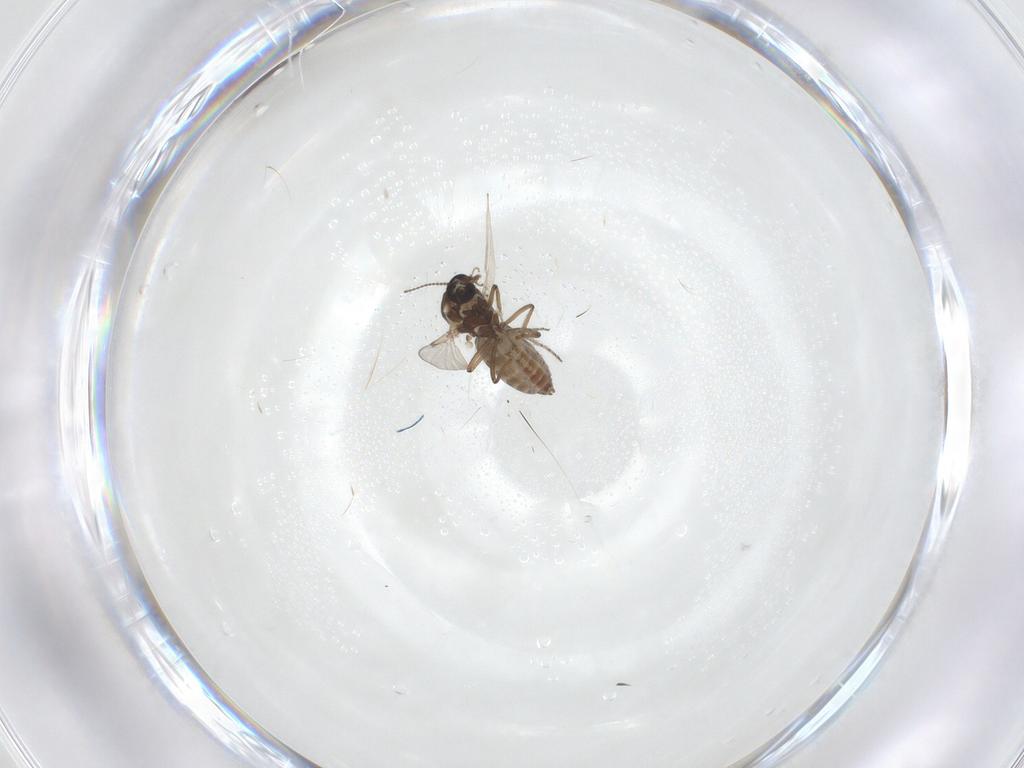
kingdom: Animalia
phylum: Arthropoda
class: Insecta
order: Diptera
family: Ceratopogonidae
